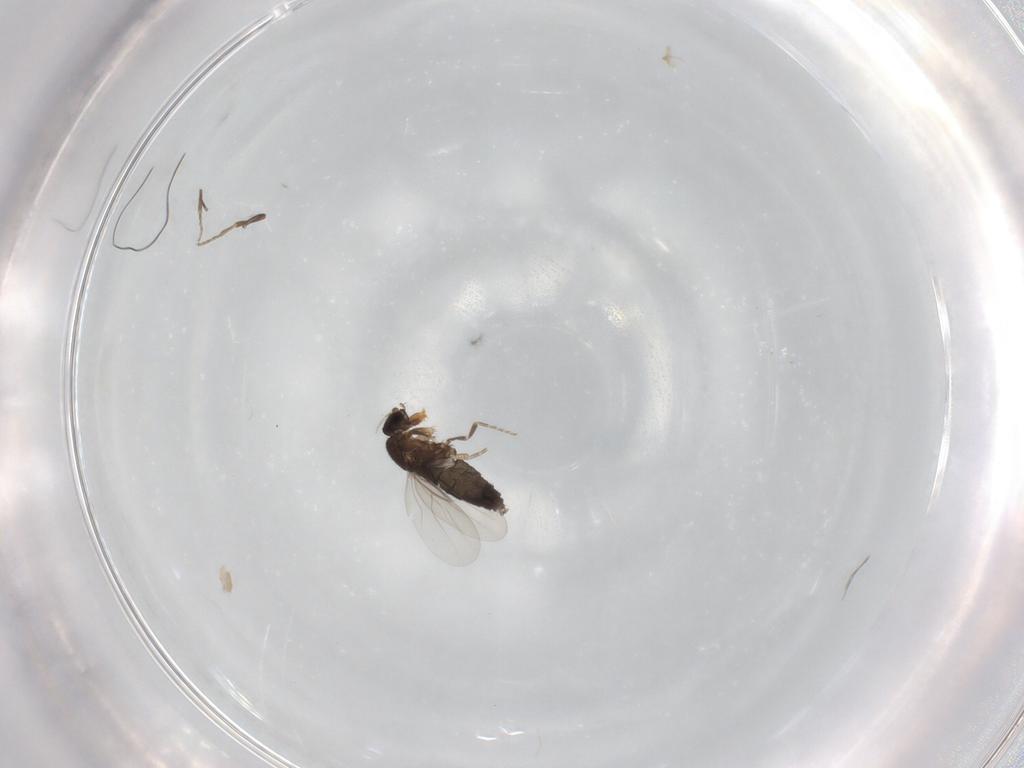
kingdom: Animalia
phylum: Arthropoda
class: Insecta
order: Diptera
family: Phoridae
